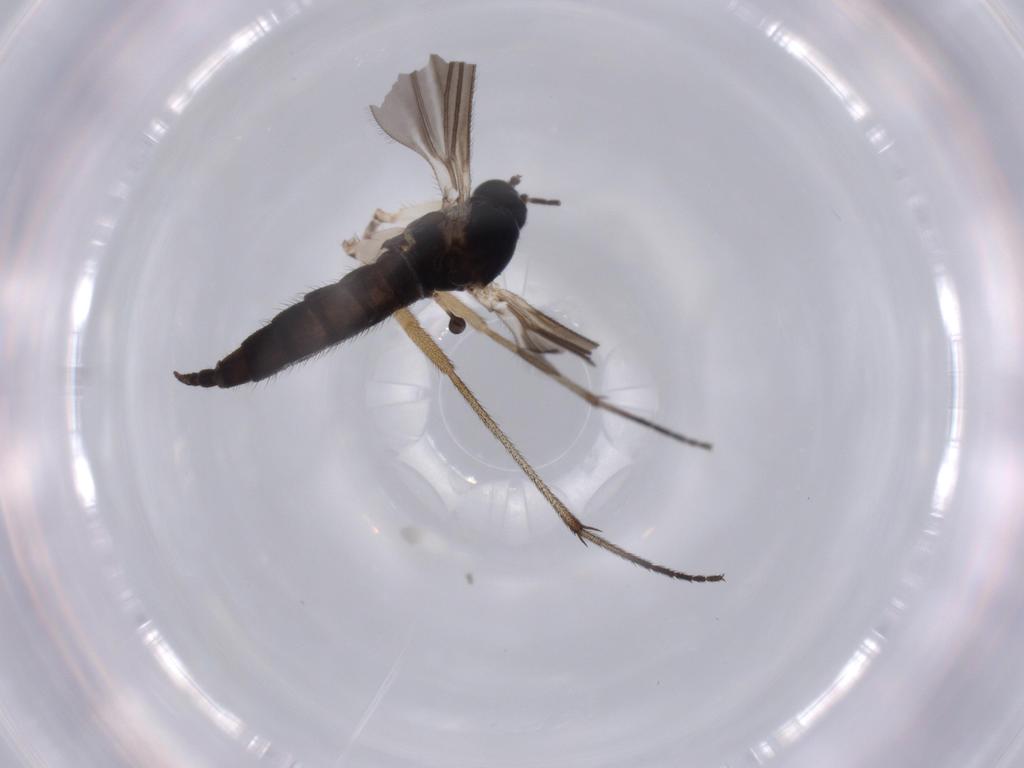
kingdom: Animalia
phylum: Arthropoda
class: Insecta
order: Diptera
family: Sciaridae
